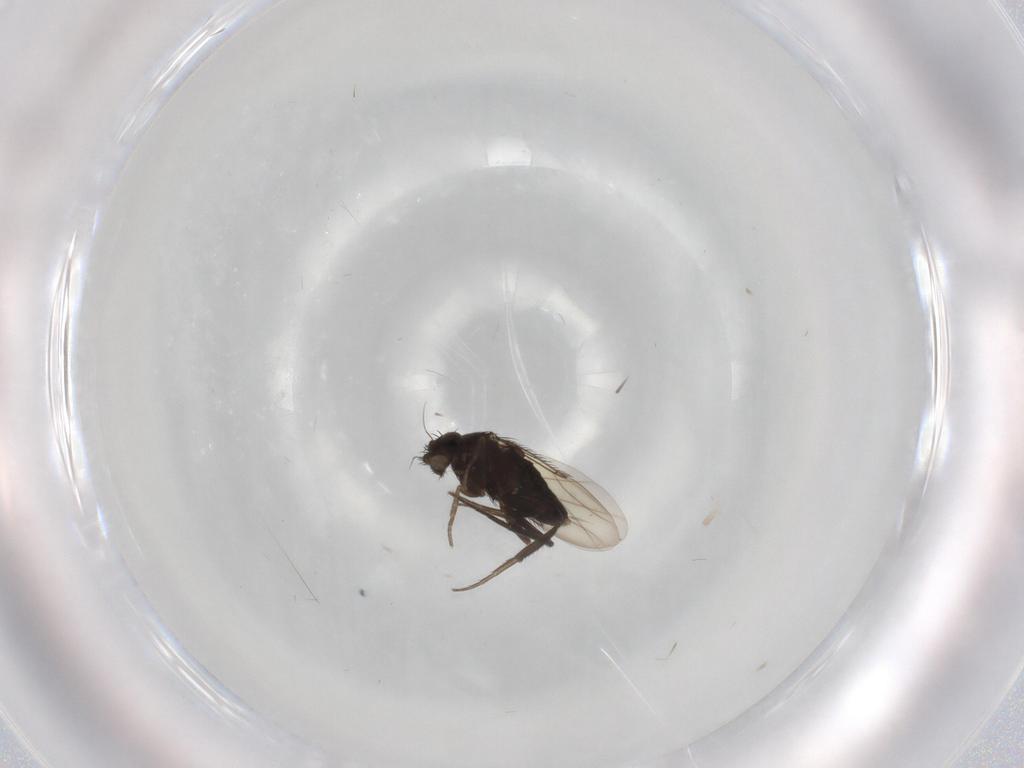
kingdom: Animalia
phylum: Arthropoda
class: Insecta
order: Diptera
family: Phoridae
